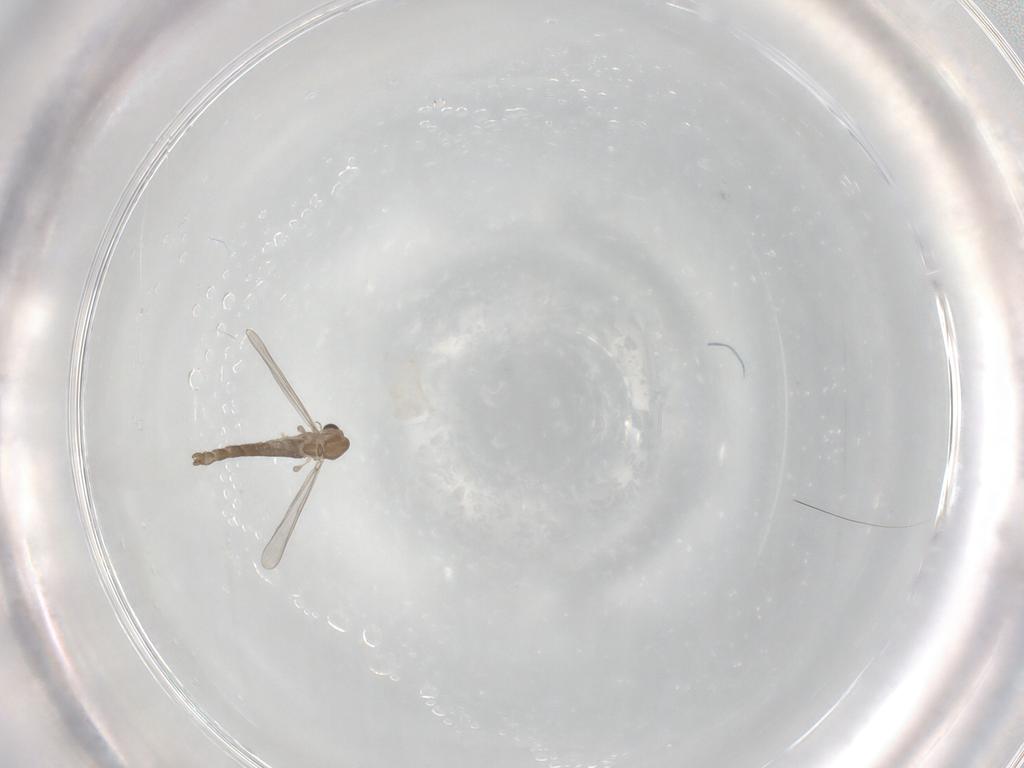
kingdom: Animalia
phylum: Arthropoda
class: Insecta
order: Diptera
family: Chironomidae
